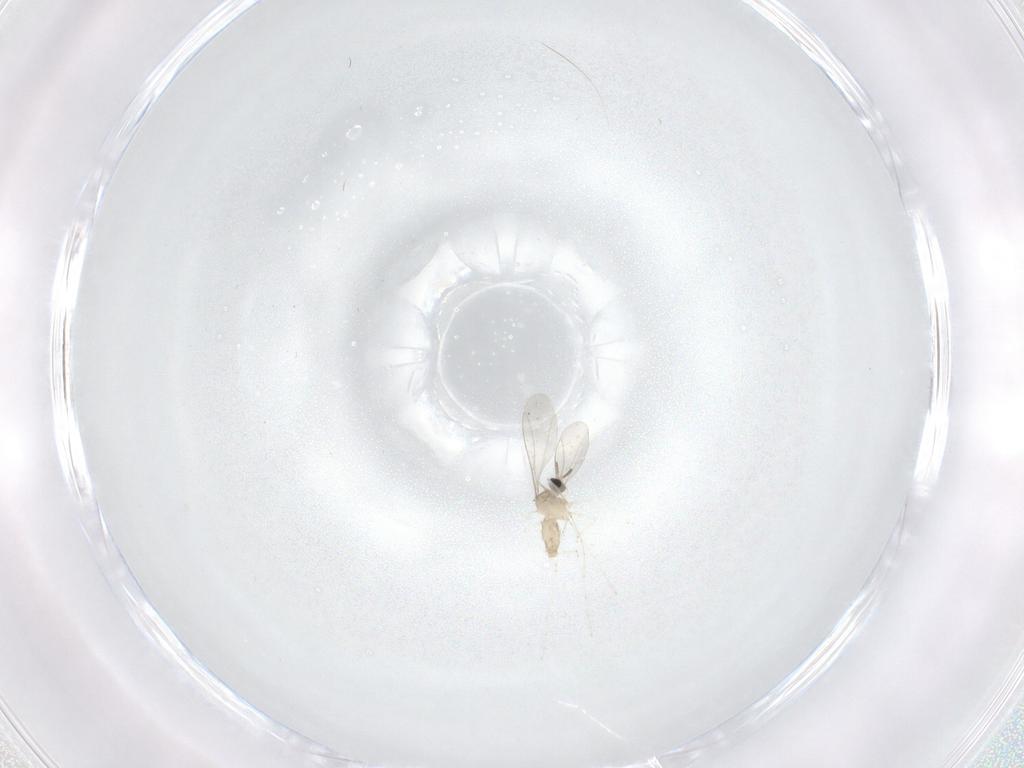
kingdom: Animalia
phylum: Arthropoda
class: Insecta
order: Diptera
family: Cecidomyiidae
